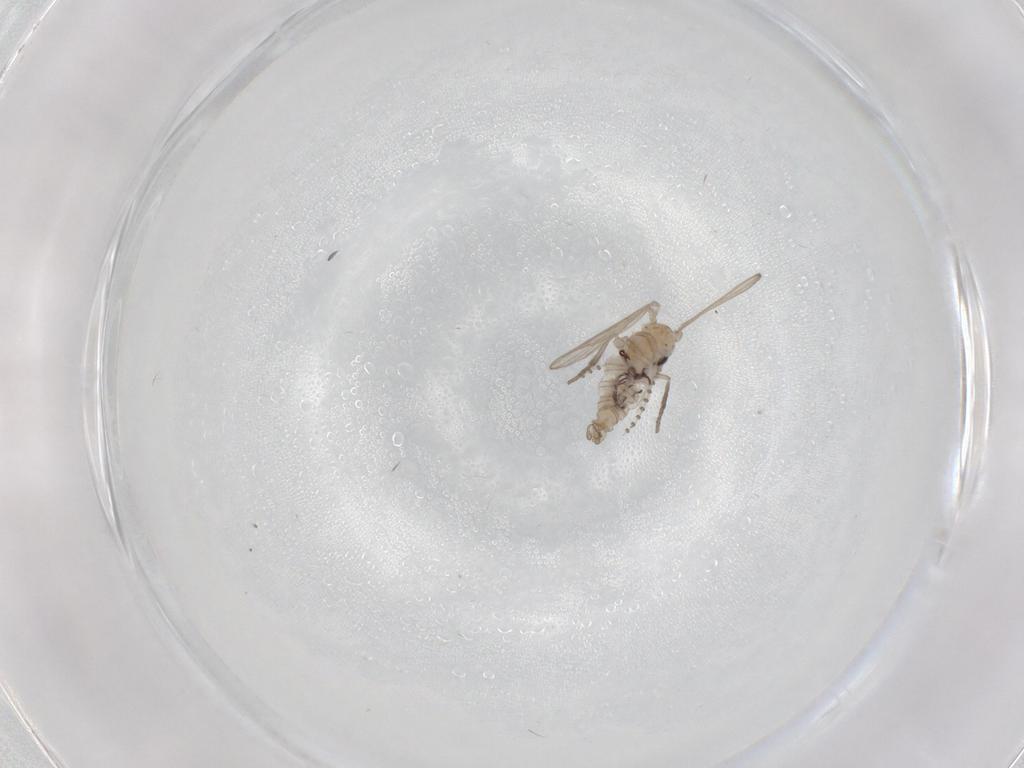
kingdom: Animalia
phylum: Arthropoda
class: Insecta
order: Diptera
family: Psychodidae
